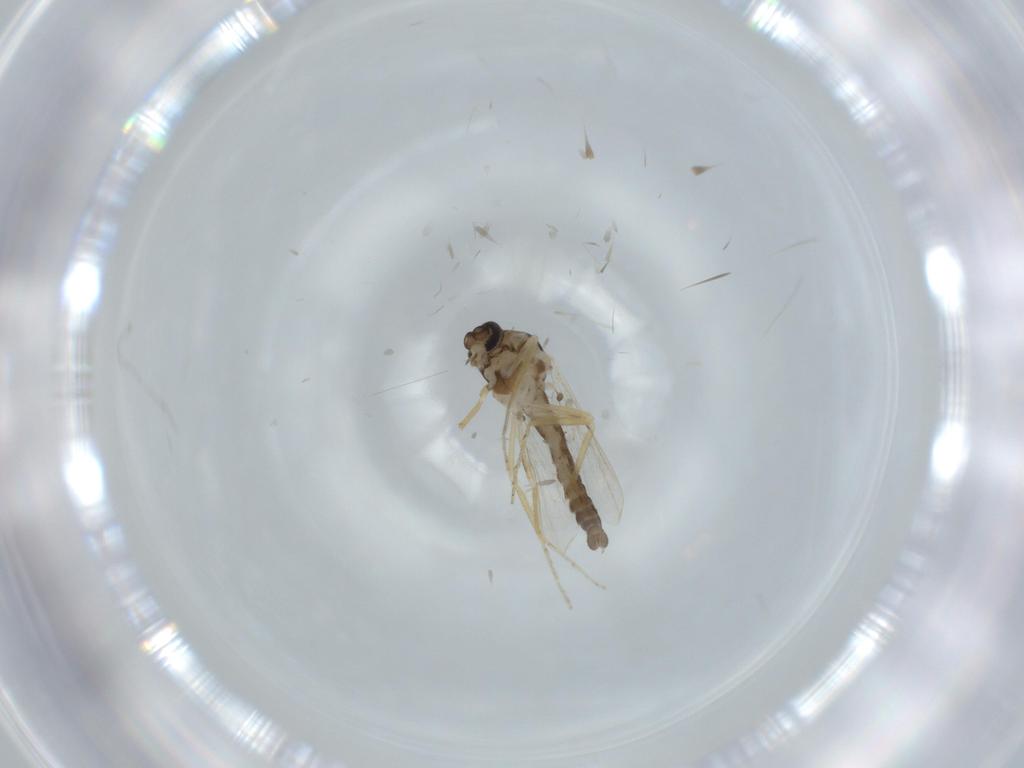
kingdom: Animalia
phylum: Arthropoda
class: Insecta
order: Diptera
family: Ceratopogonidae
